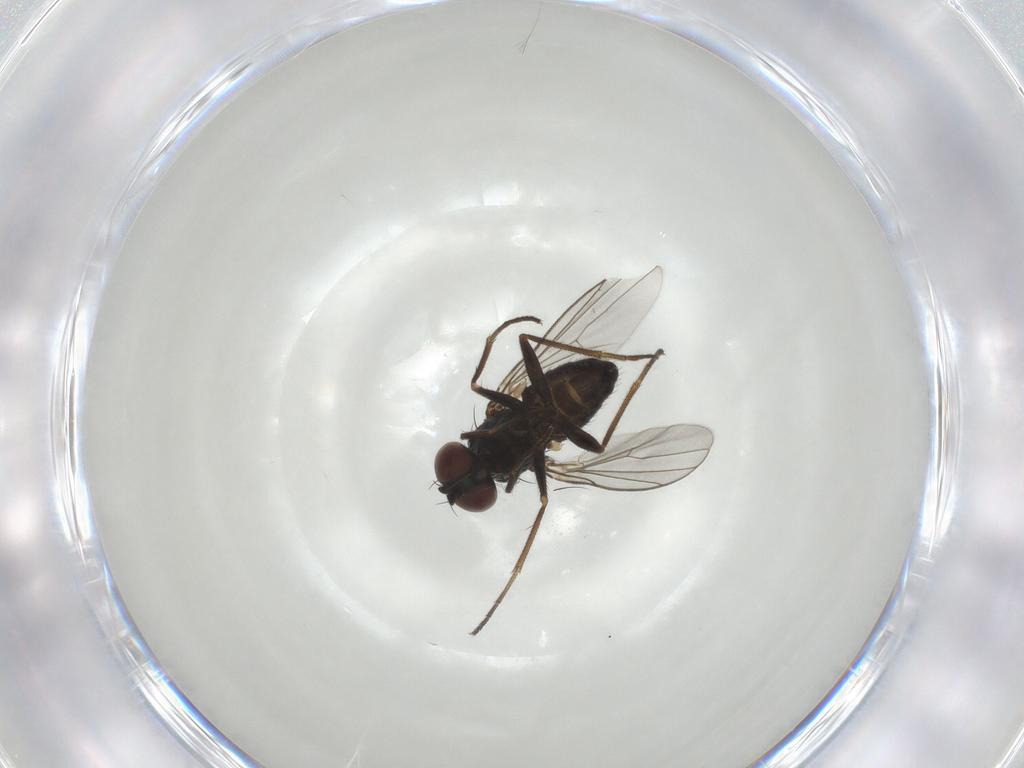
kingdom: Animalia
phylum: Arthropoda
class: Insecta
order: Diptera
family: Dolichopodidae
